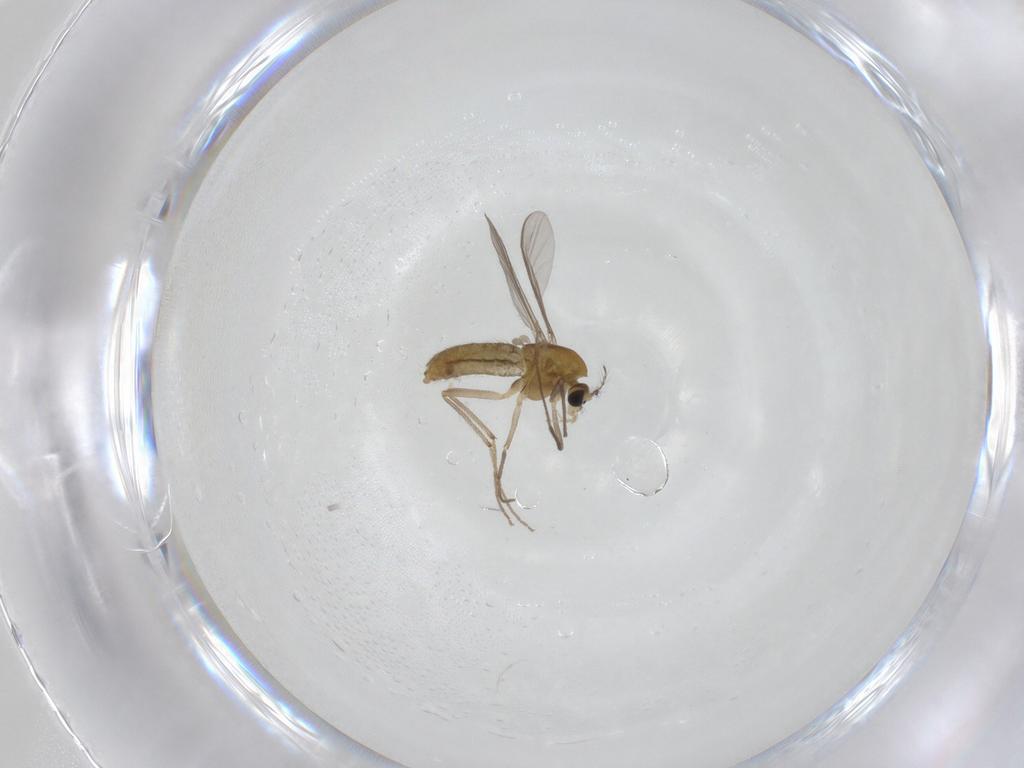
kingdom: Animalia
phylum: Arthropoda
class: Insecta
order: Diptera
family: Chironomidae
